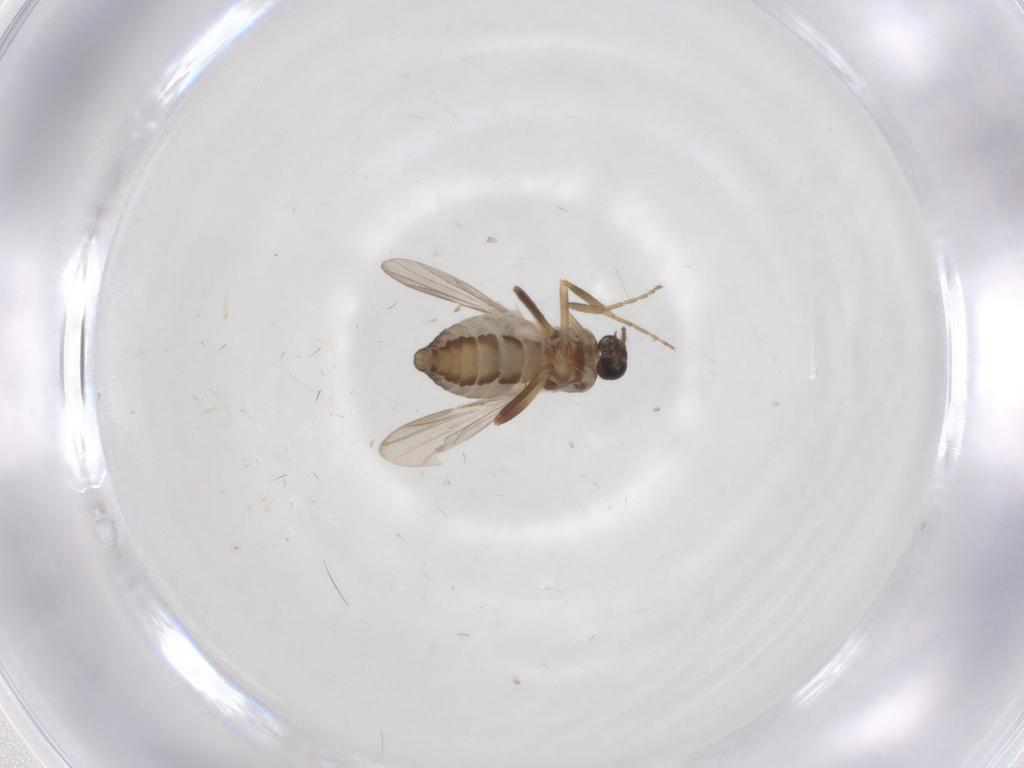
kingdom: Animalia
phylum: Arthropoda
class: Insecta
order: Diptera
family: Ceratopogonidae
